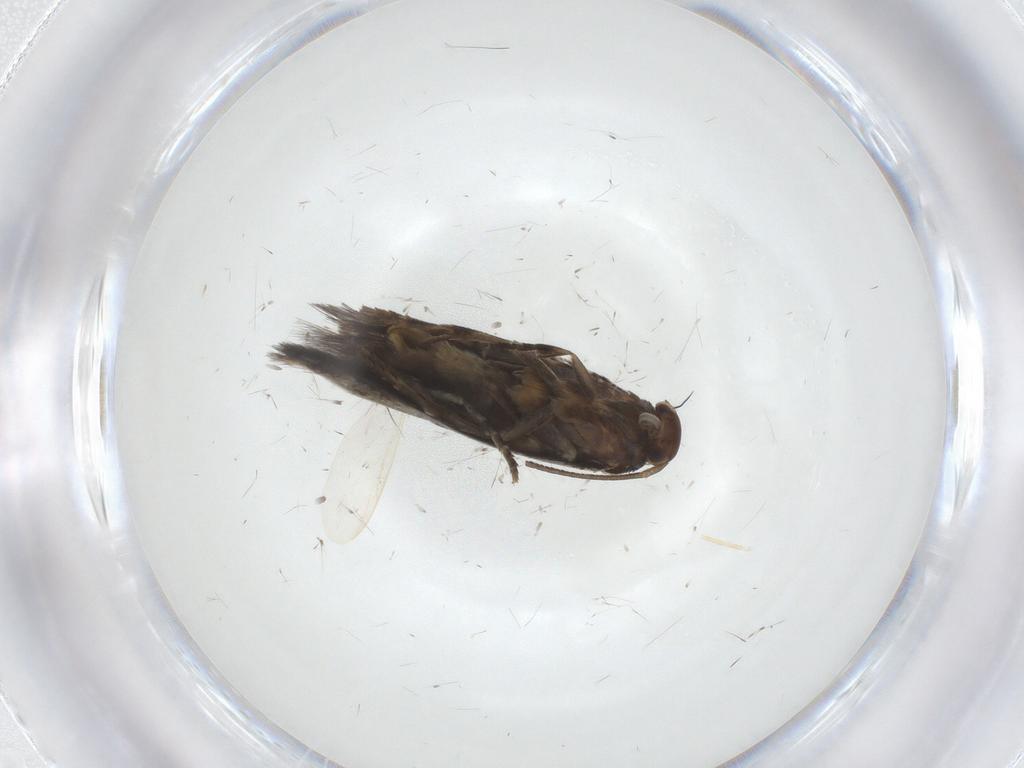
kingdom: Animalia
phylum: Arthropoda
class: Insecta
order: Lepidoptera
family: Elachistidae
